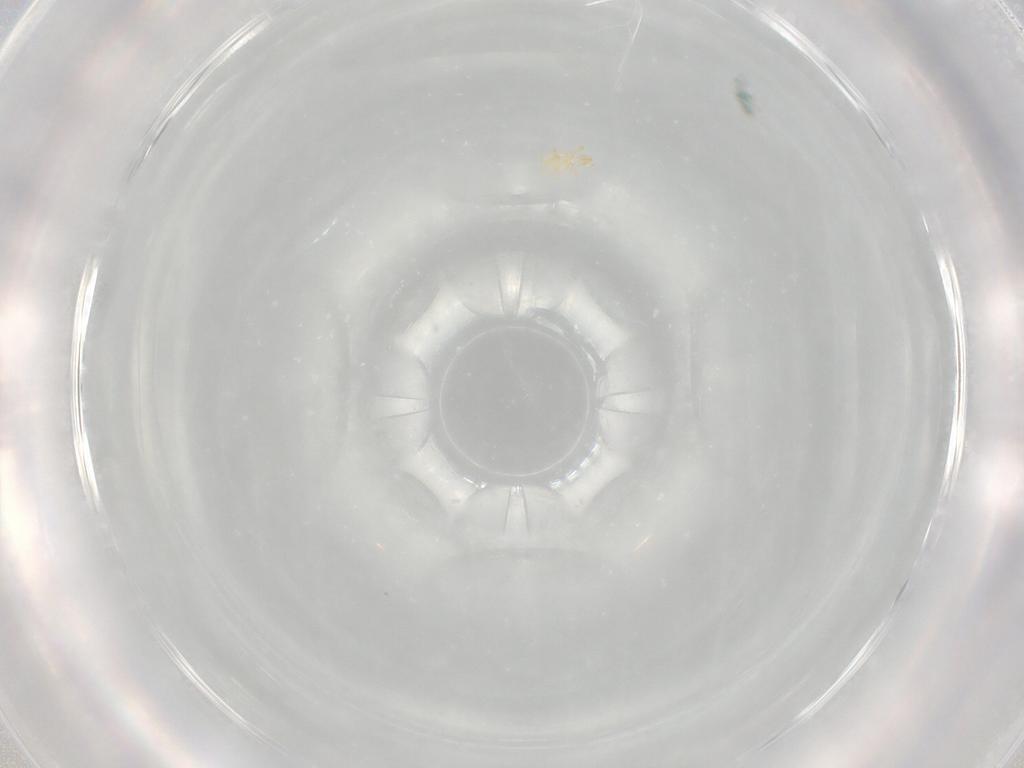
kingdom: Animalia
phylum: Arthropoda
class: Insecta
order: Diptera
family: Polleniidae
